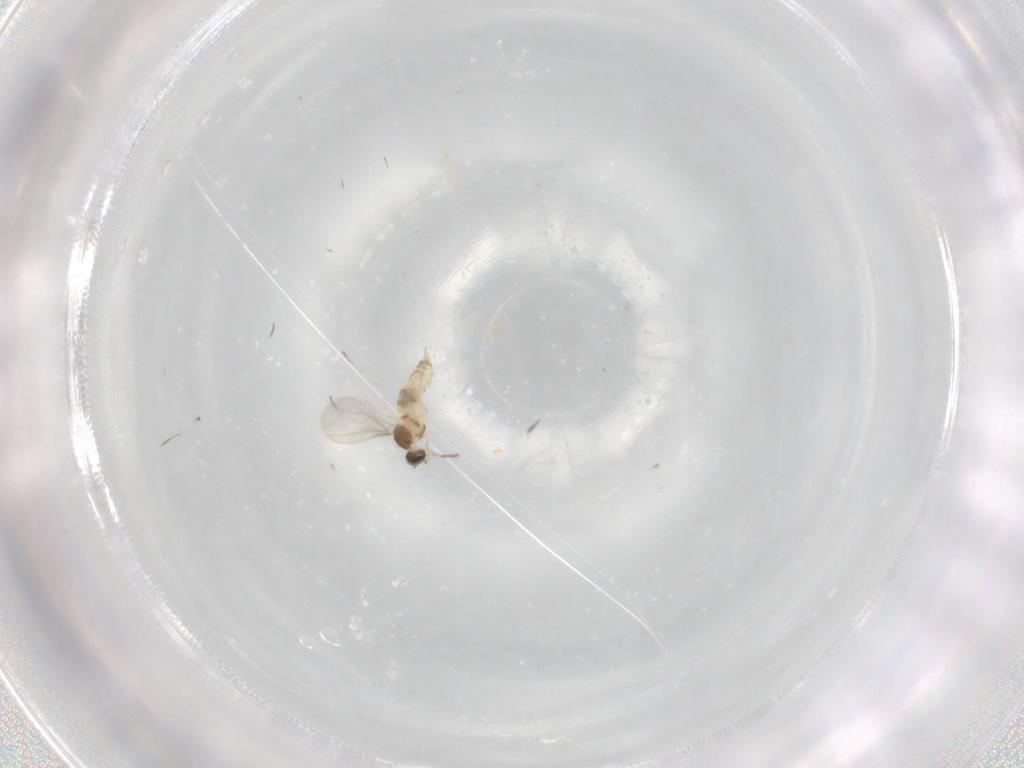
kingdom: Animalia
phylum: Arthropoda
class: Insecta
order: Diptera
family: Cecidomyiidae
